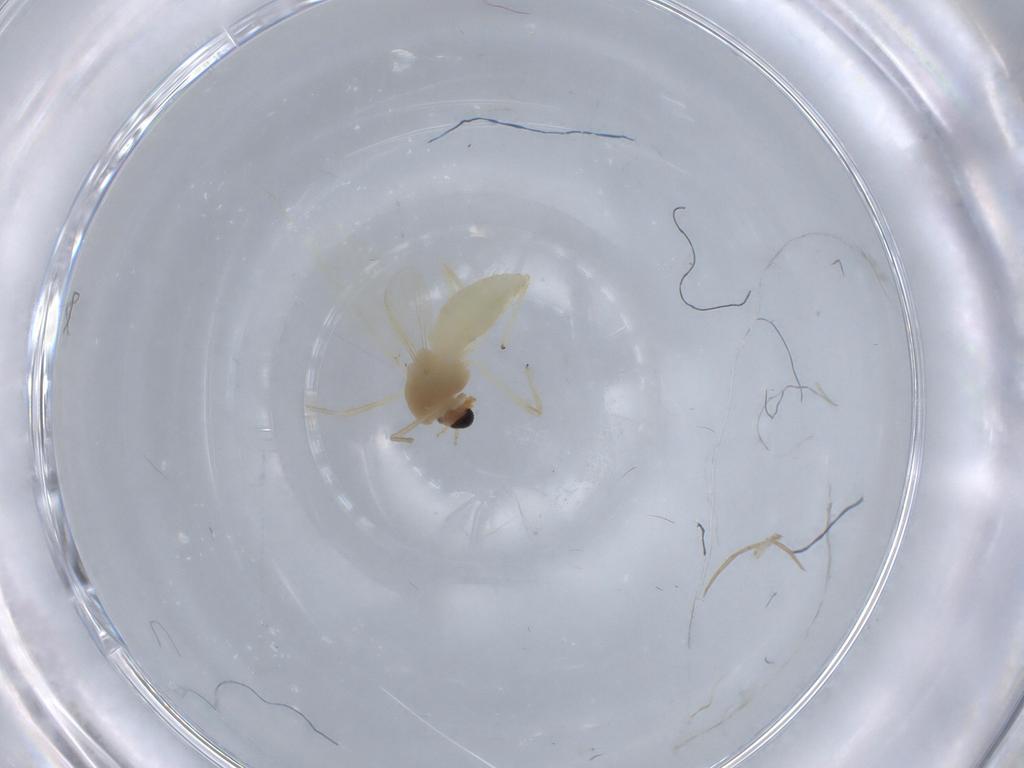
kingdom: Animalia
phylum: Arthropoda
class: Insecta
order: Diptera
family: Chironomidae
